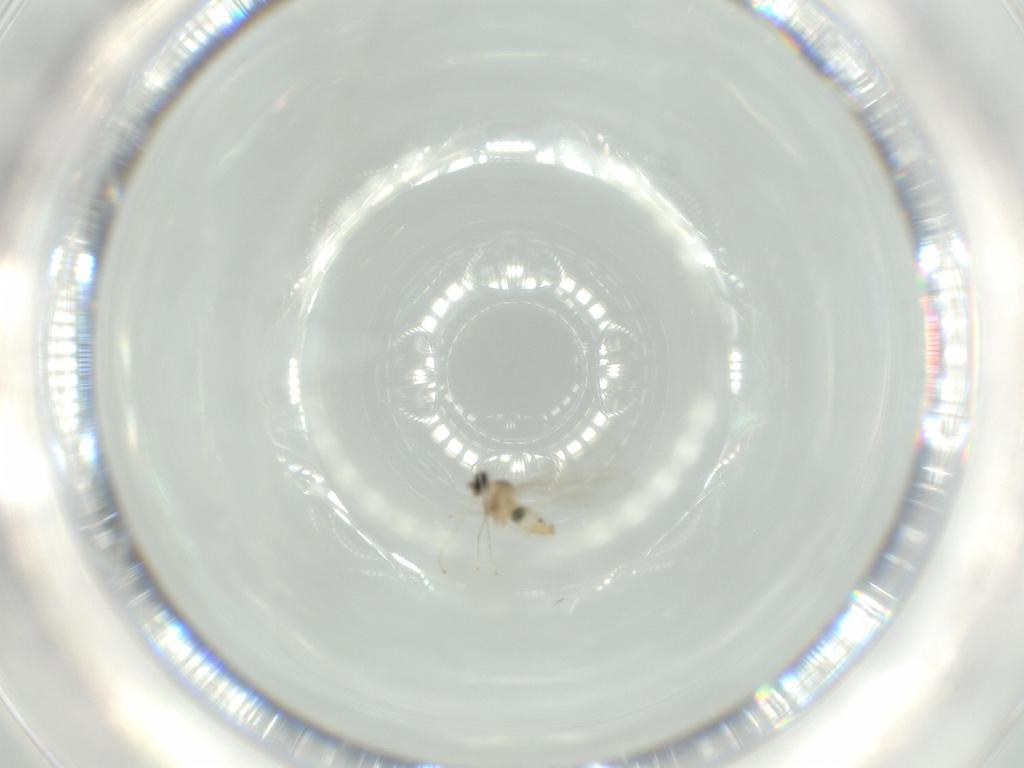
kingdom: Animalia
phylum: Arthropoda
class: Insecta
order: Diptera
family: Cecidomyiidae
